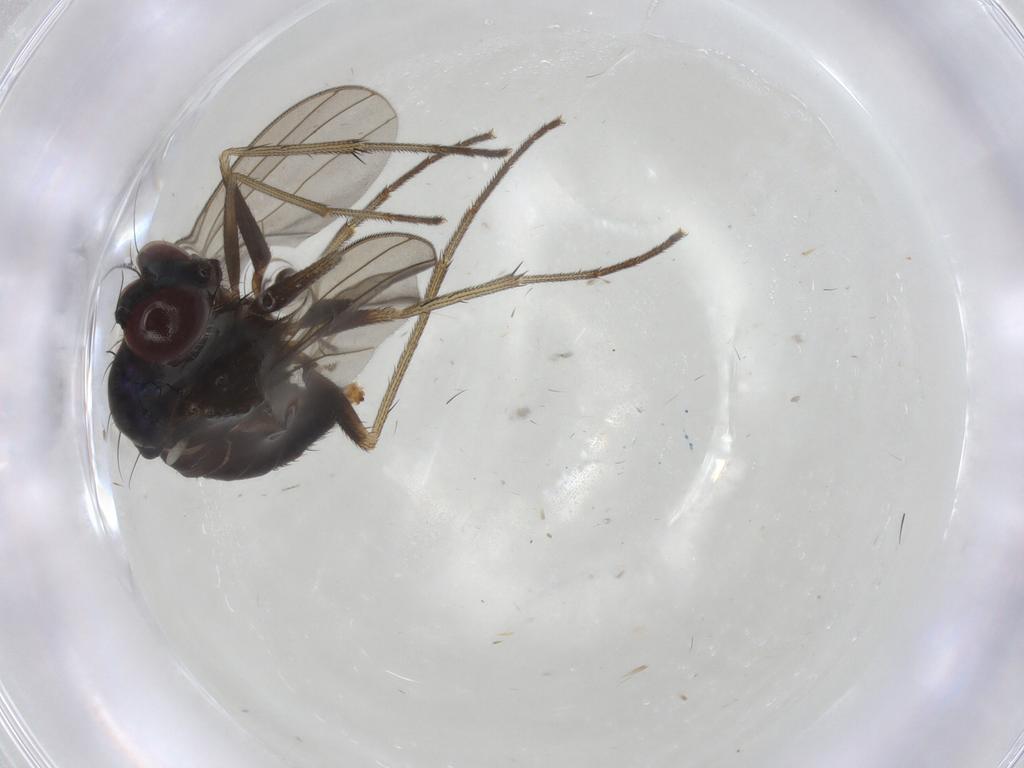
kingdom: Animalia
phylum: Arthropoda
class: Insecta
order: Diptera
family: Dolichopodidae
